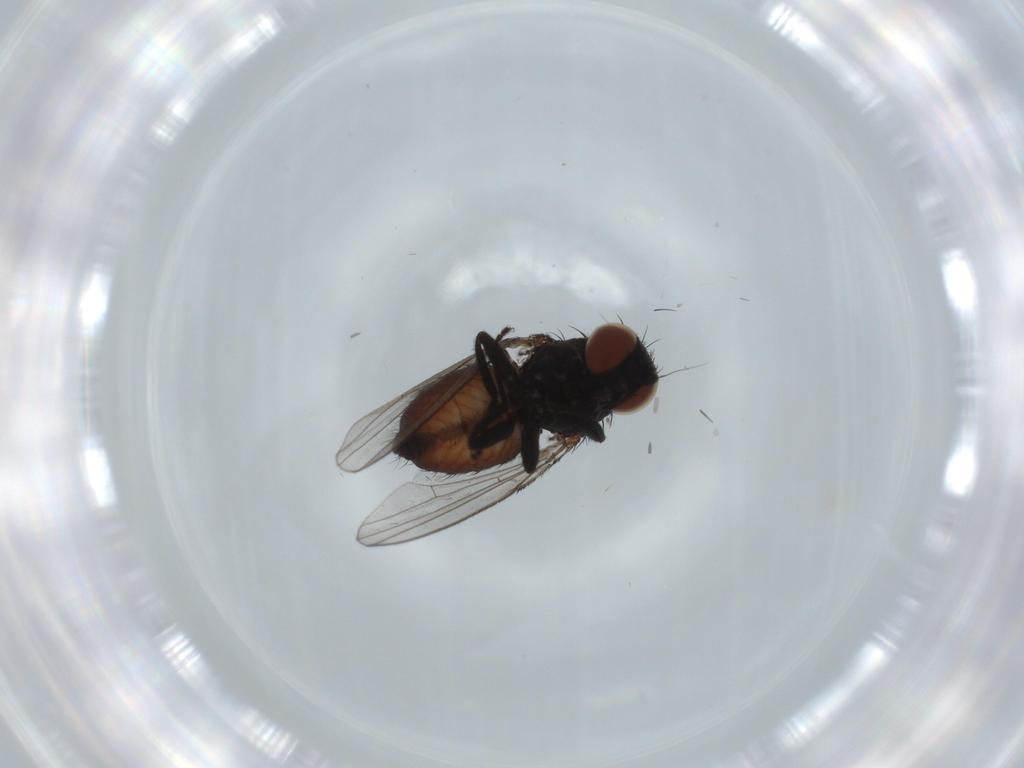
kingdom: Animalia
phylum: Arthropoda
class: Insecta
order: Diptera
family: Milichiidae
